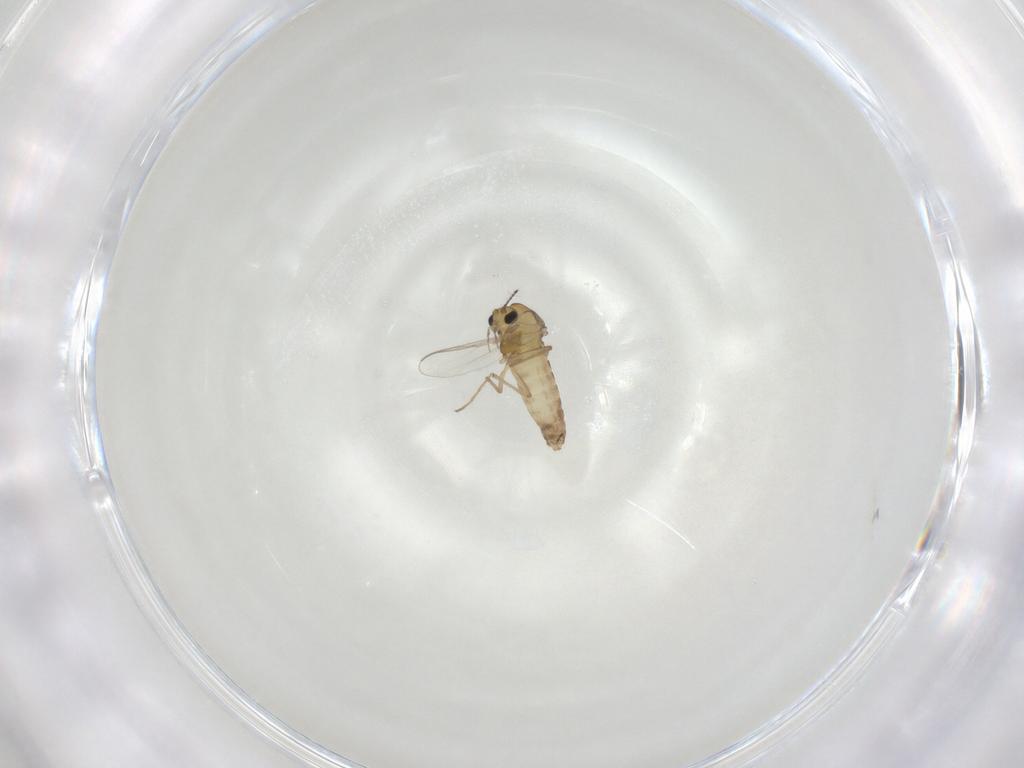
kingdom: Animalia
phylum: Arthropoda
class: Insecta
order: Diptera
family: Chironomidae
